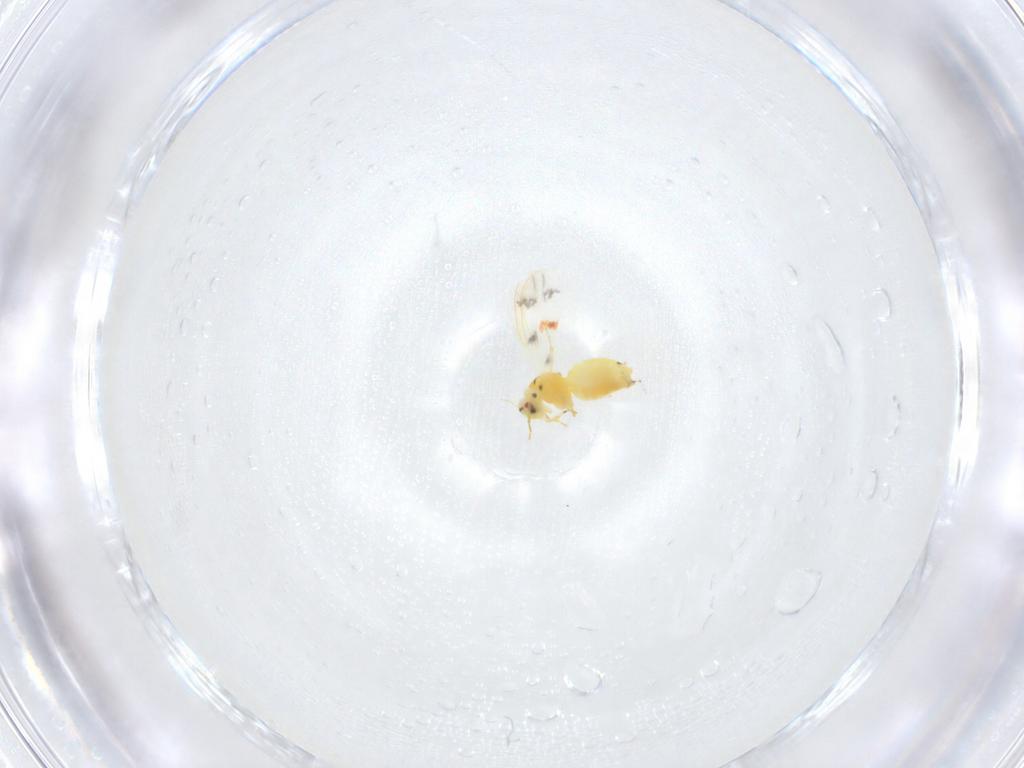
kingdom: Animalia
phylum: Arthropoda
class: Insecta
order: Hemiptera
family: Aleyrodidae
